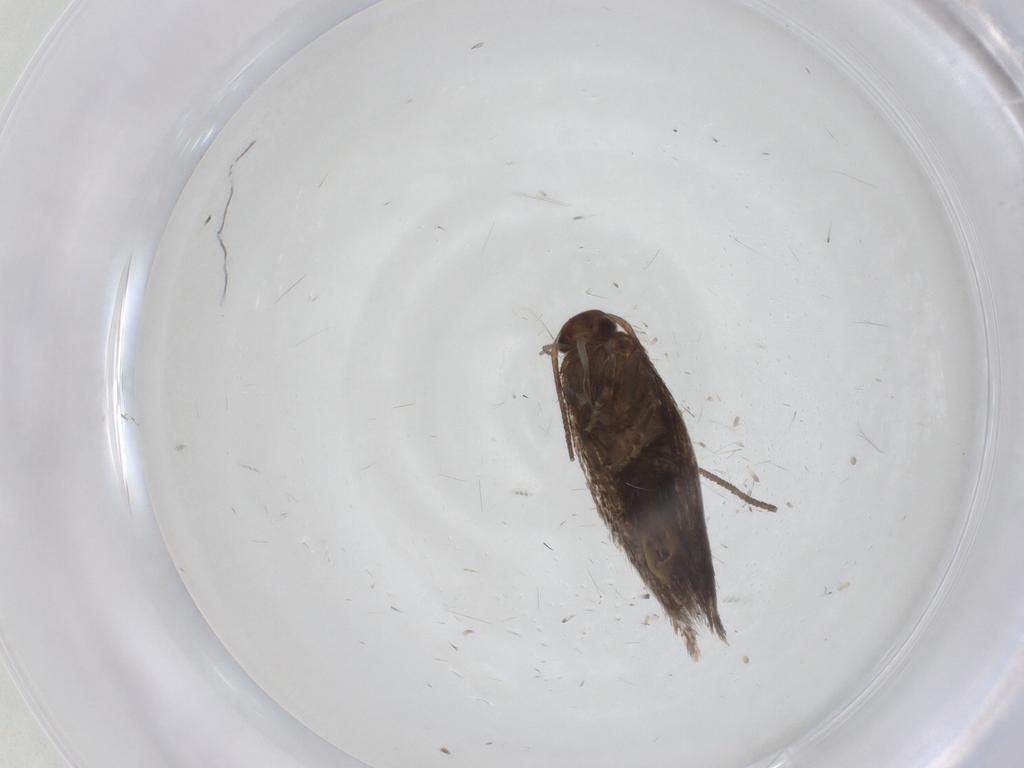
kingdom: Animalia
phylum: Arthropoda
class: Insecta
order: Lepidoptera
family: Elachistidae
